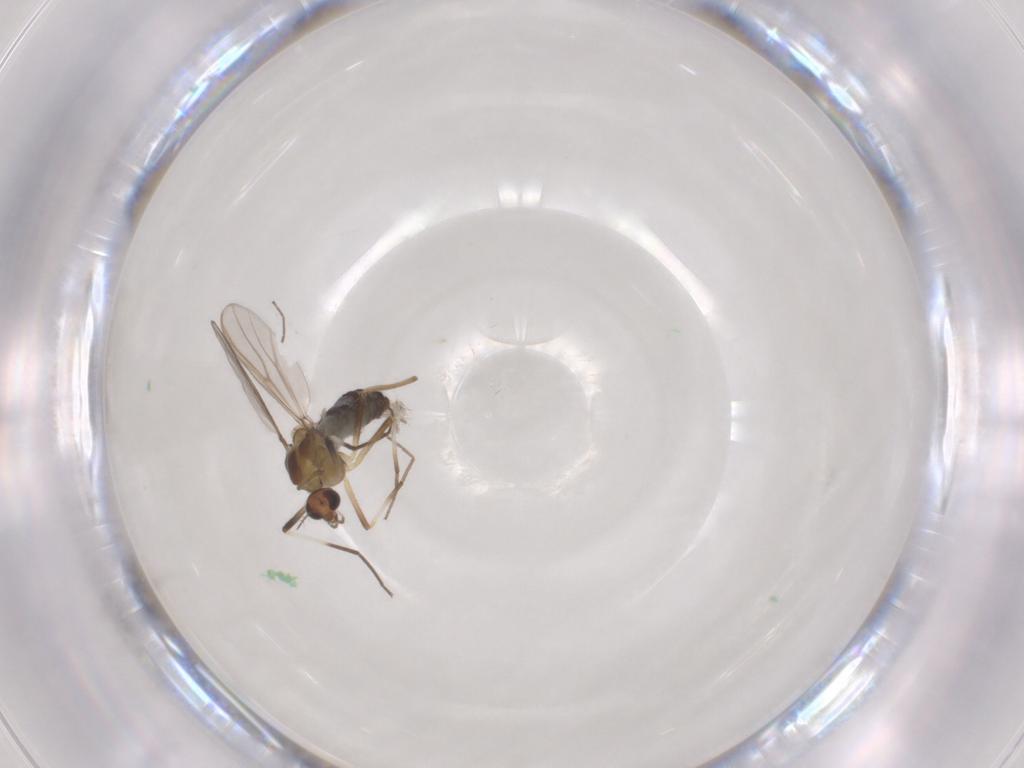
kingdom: Animalia
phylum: Arthropoda
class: Insecta
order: Diptera
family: Chironomidae
